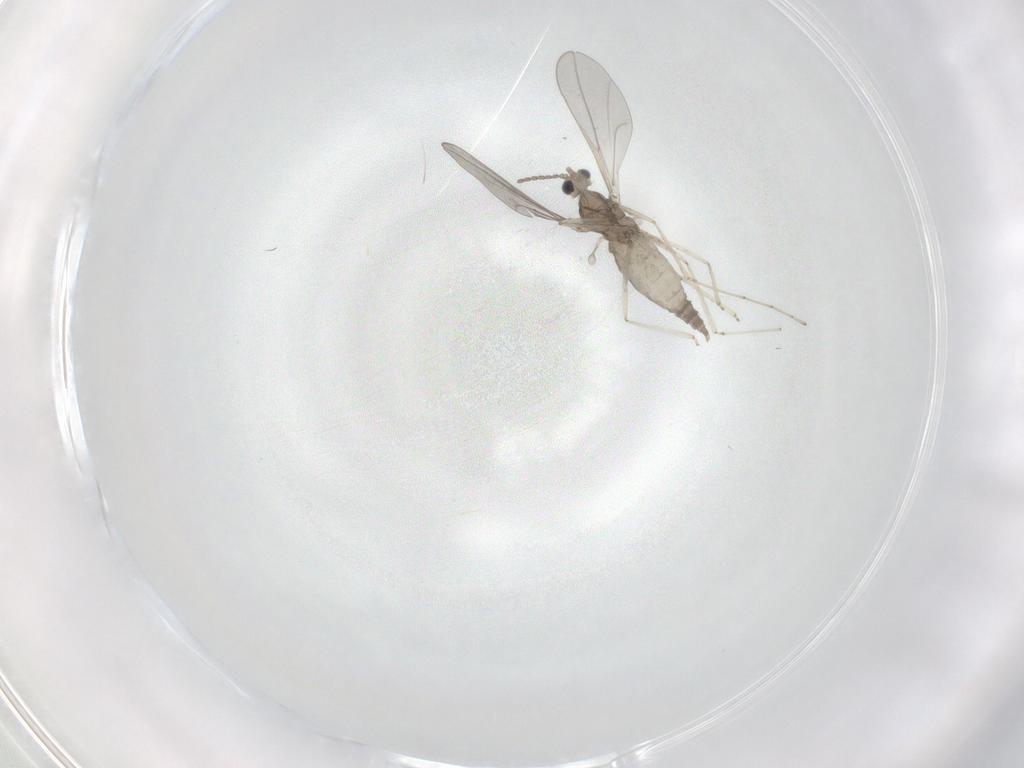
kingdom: Animalia
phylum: Arthropoda
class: Insecta
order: Diptera
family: Cecidomyiidae
